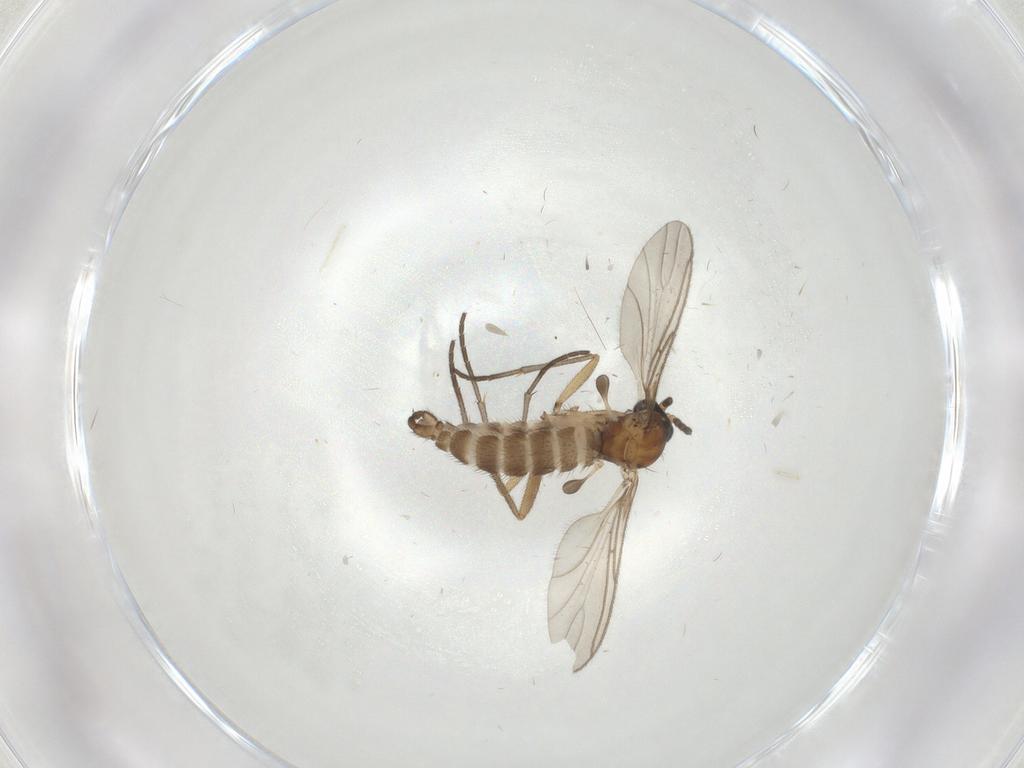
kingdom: Animalia
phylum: Arthropoda
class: Insecta
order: Diptera
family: Sciaridae
